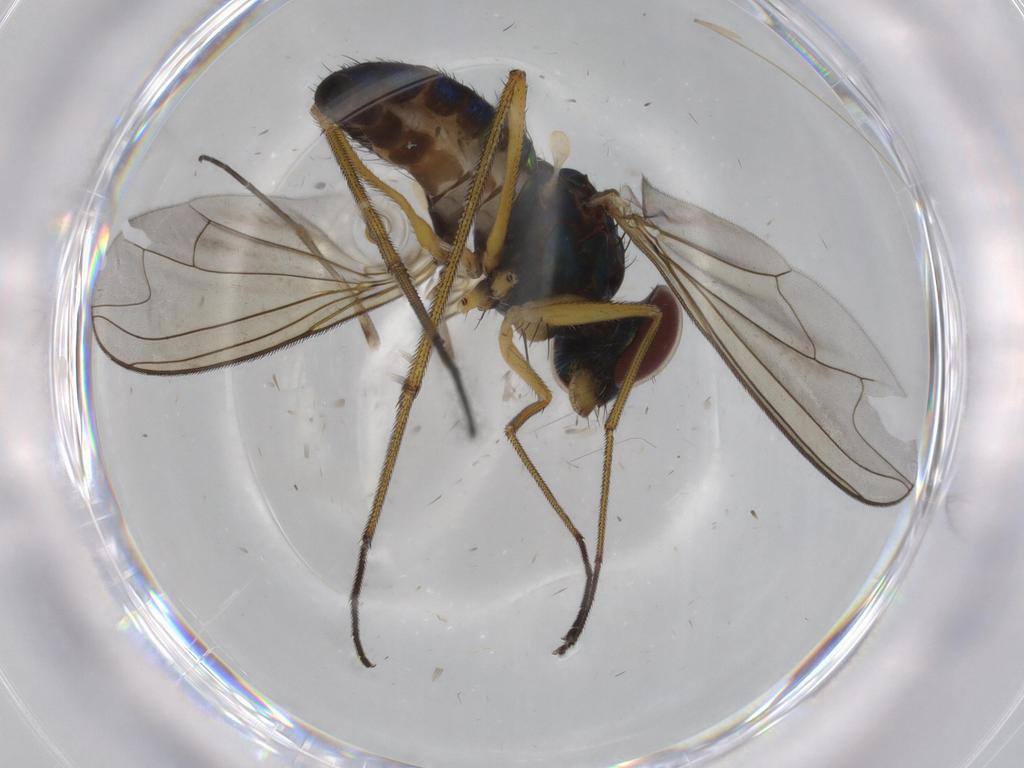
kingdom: Animalia
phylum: Arthropoda
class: Insecta
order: Diptera
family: Dolichopodidae
